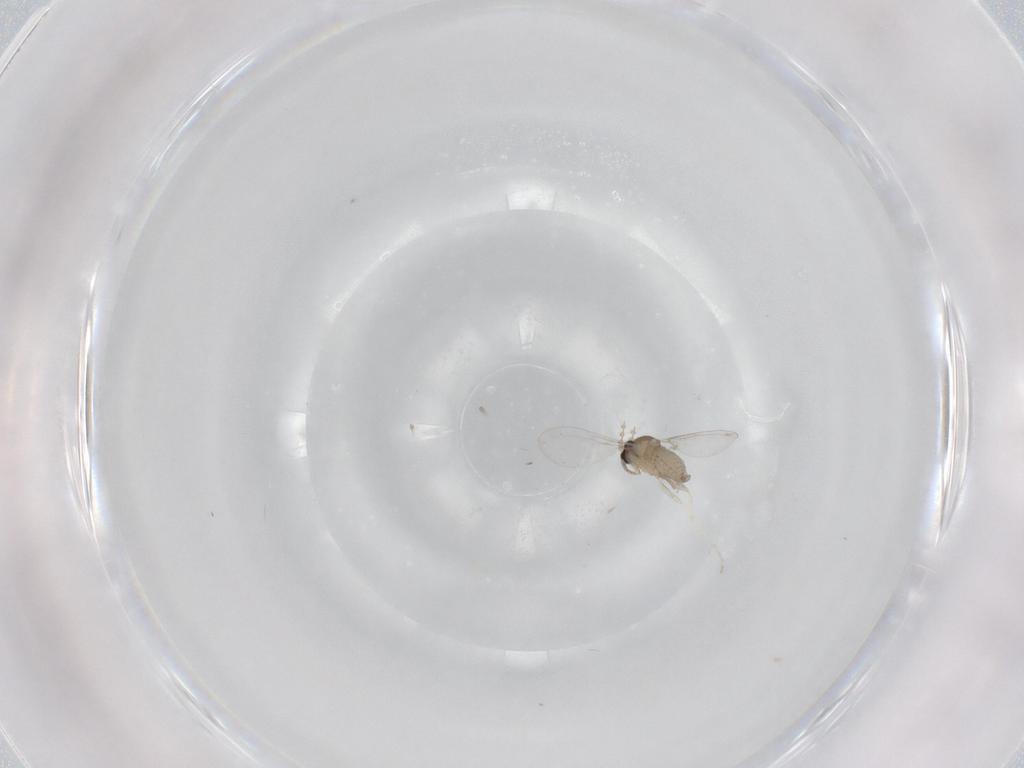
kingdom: Animalia
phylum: Arthropoda
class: Insecta
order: Diptera
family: Cecidomyiidae
